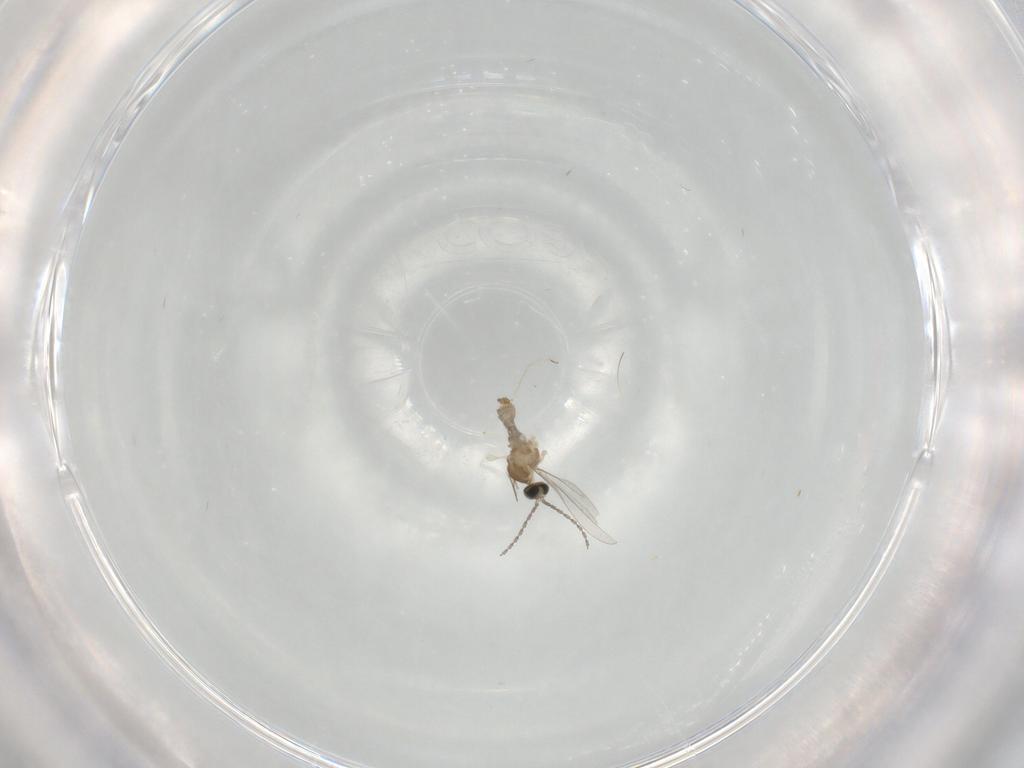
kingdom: Animalia
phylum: Arthropoda
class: Insecta
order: Diptera
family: Cecidomyiidae
